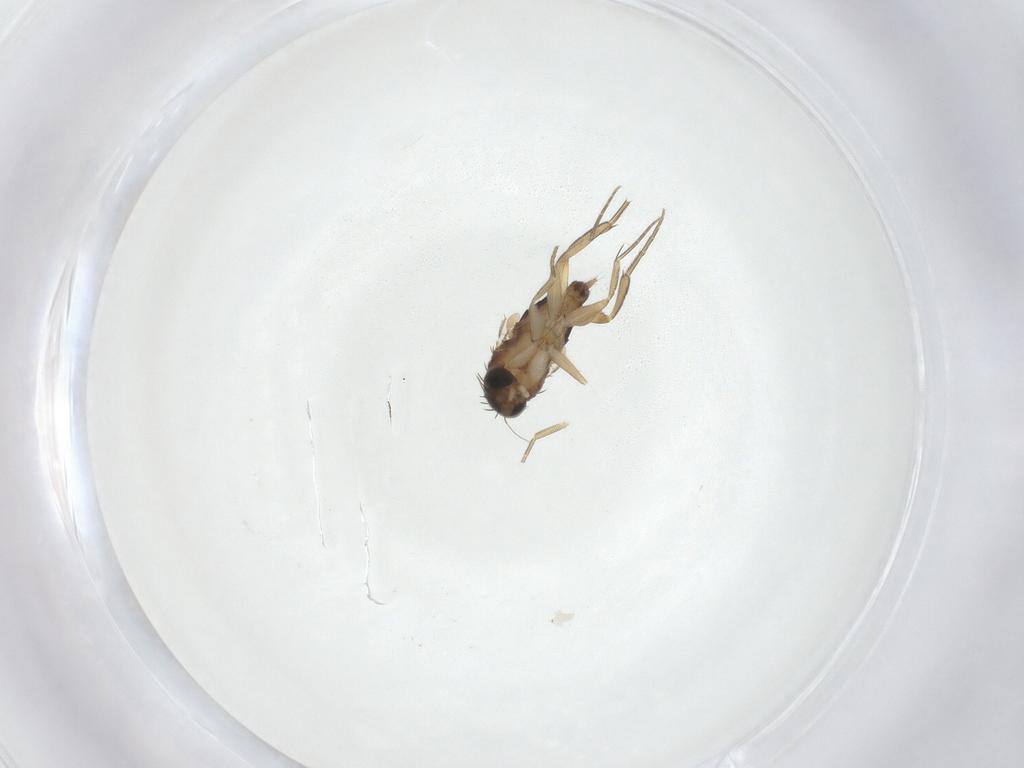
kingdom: Animalia
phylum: Arthropoda
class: Insecta
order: Diptera
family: Phoridae
